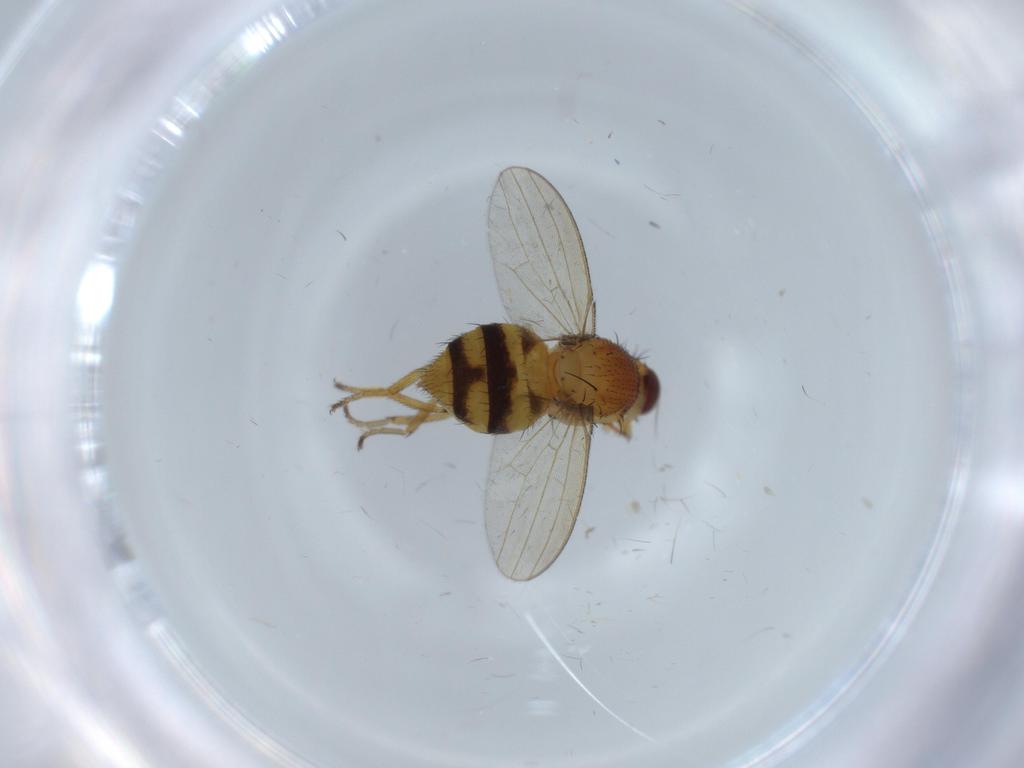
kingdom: Animalia
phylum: Arthropoda
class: Insecta
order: Diptera
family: Milichiidae
